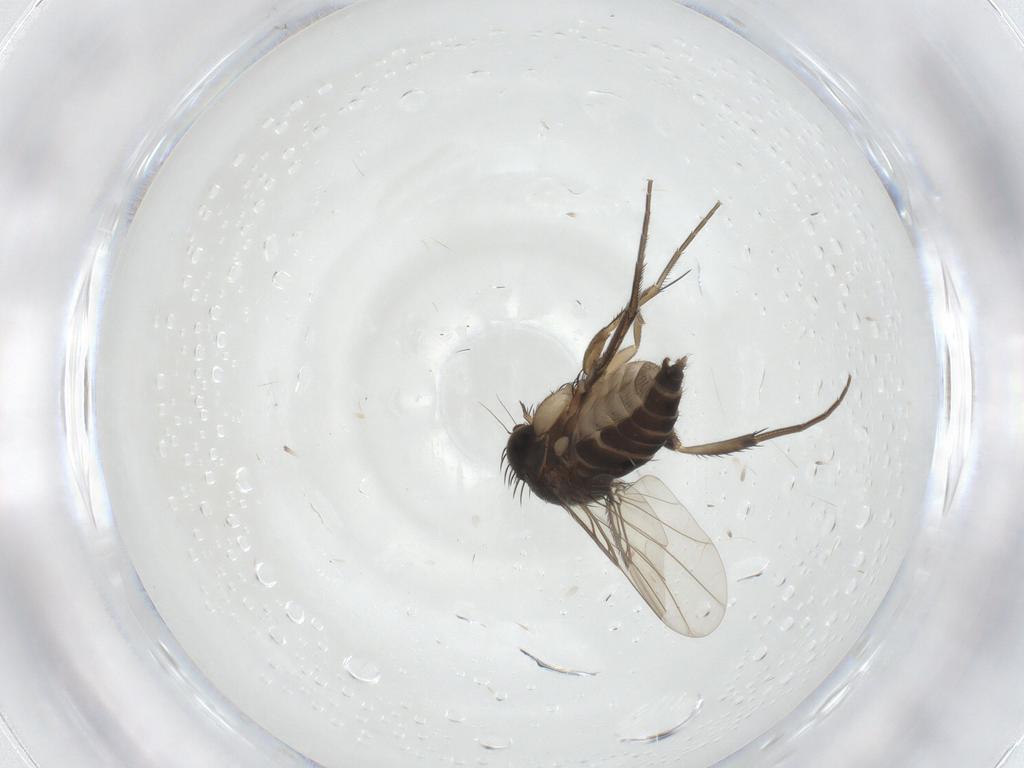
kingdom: Animalia
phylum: Arthropoda
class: Insecta
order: Diptera
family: Phoridae
